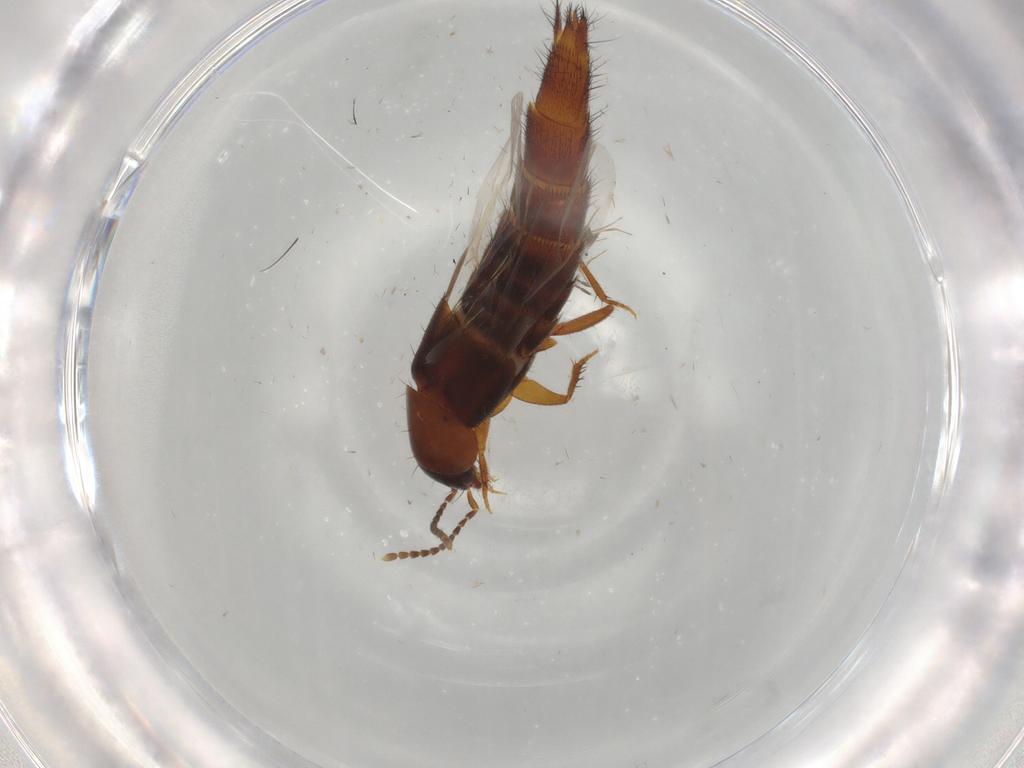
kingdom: Animalia
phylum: Arthropoda
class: Insecta
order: Coleoptera
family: Staphylinidae
